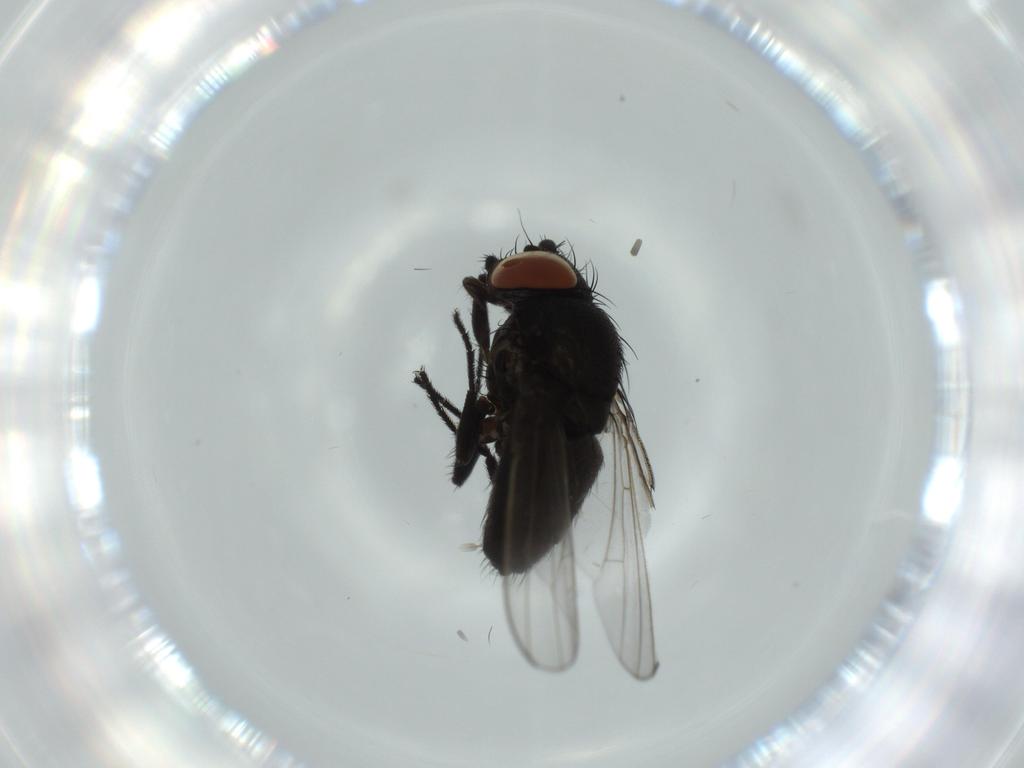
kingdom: Animalia
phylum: Arthropoda
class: Insecta
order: Diptera
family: Milichiidae
